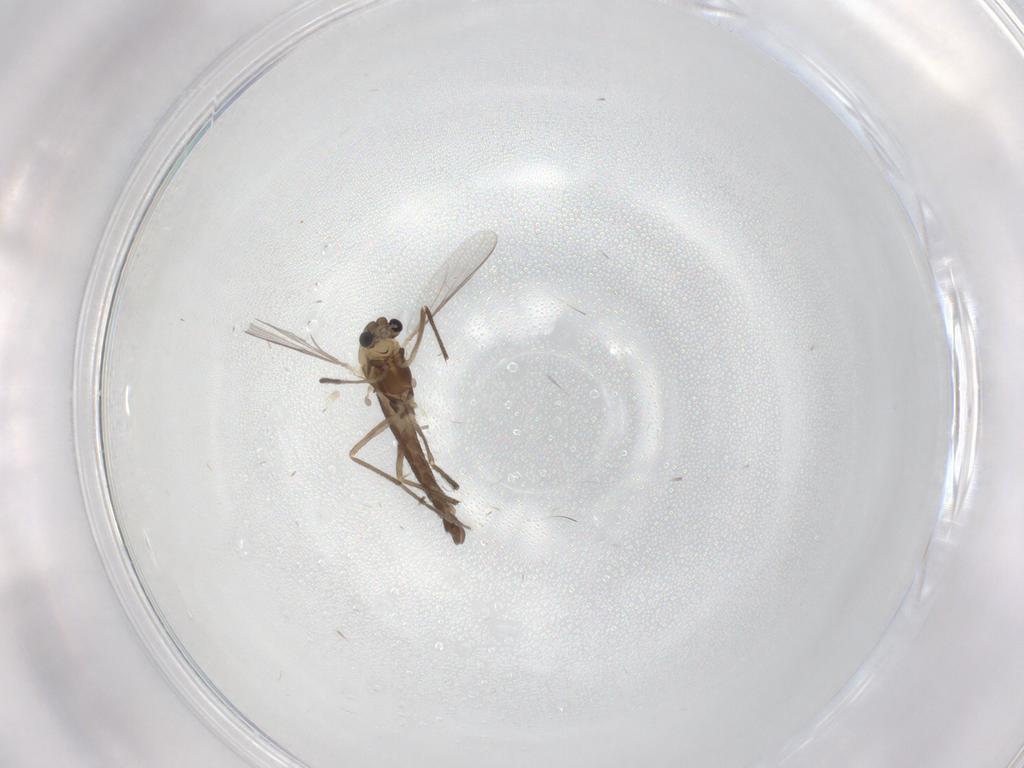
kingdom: Animalia
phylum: Arthropoda
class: Insecta
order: Diptera
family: Chironomidae
